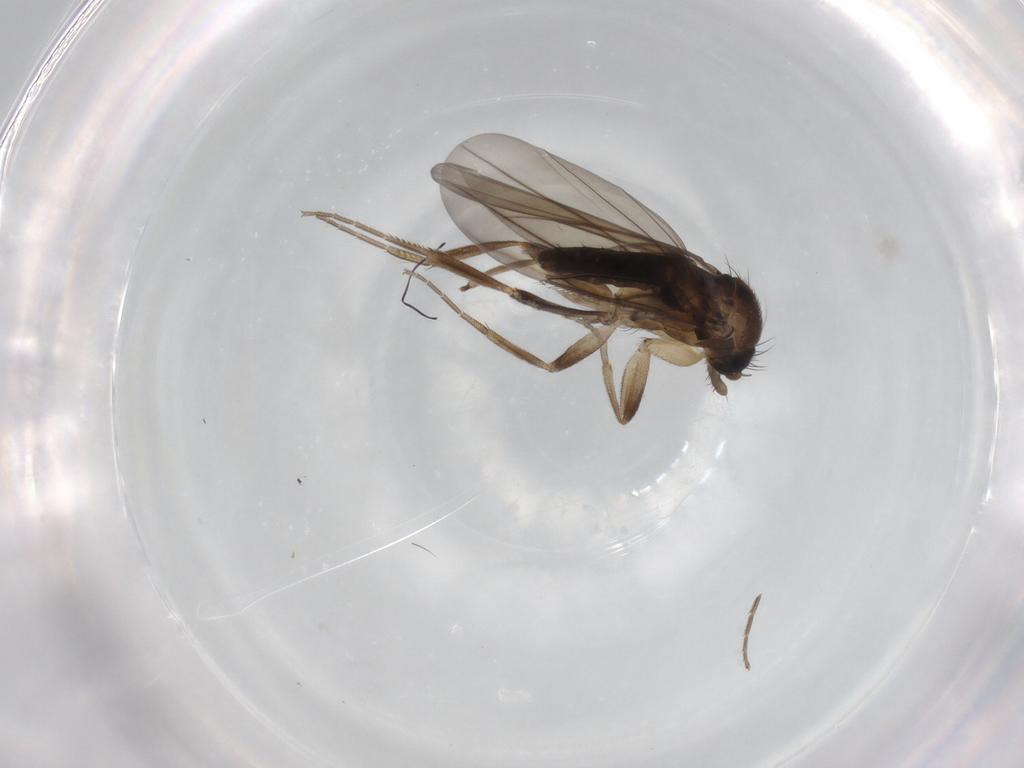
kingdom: Animalia
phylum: Arthropoda
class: Insecta
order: Diptera
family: Phoridae
